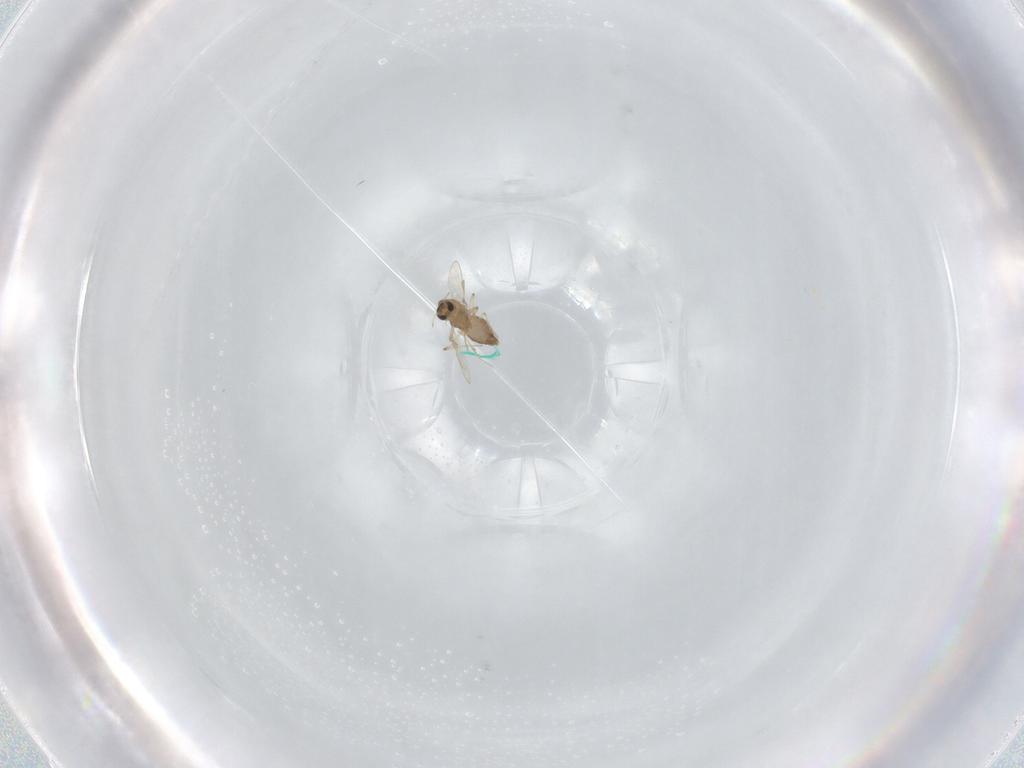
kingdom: Animalia
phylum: Arthropoda
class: Insecta
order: Diptera
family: Chironomidae
